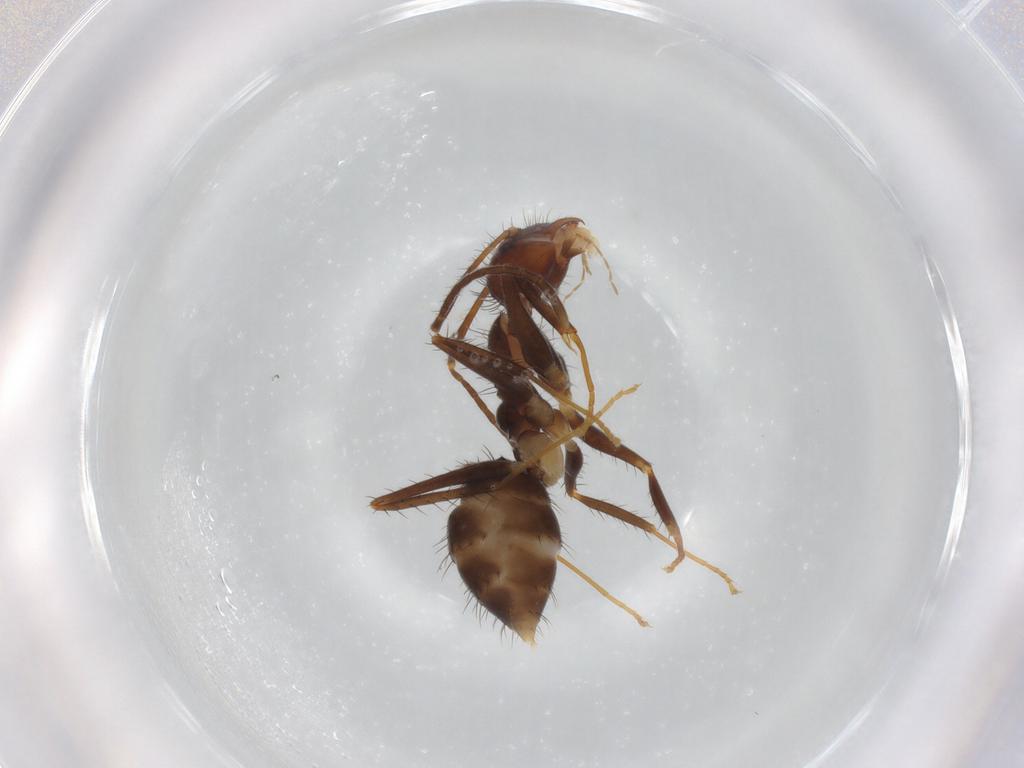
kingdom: Animalia
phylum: Arthropoda
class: Insecta
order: Hymenoptera
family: Formicidae
